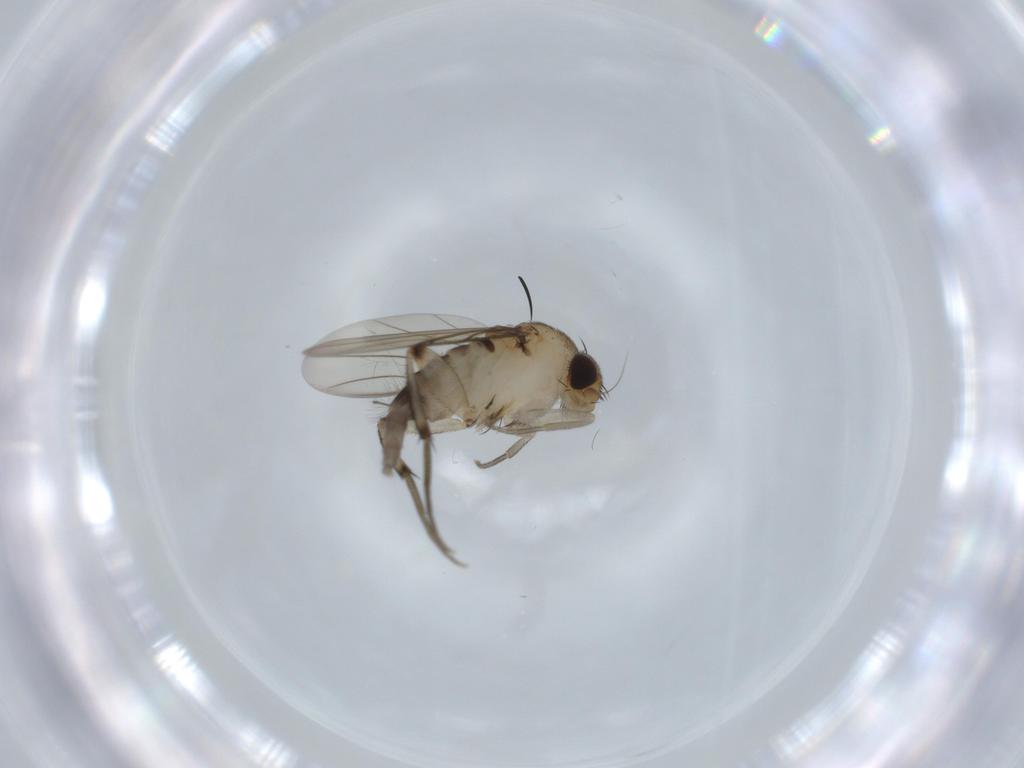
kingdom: Animalia
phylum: Arthropoda
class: Insecta
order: Diptera
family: Phoridae
